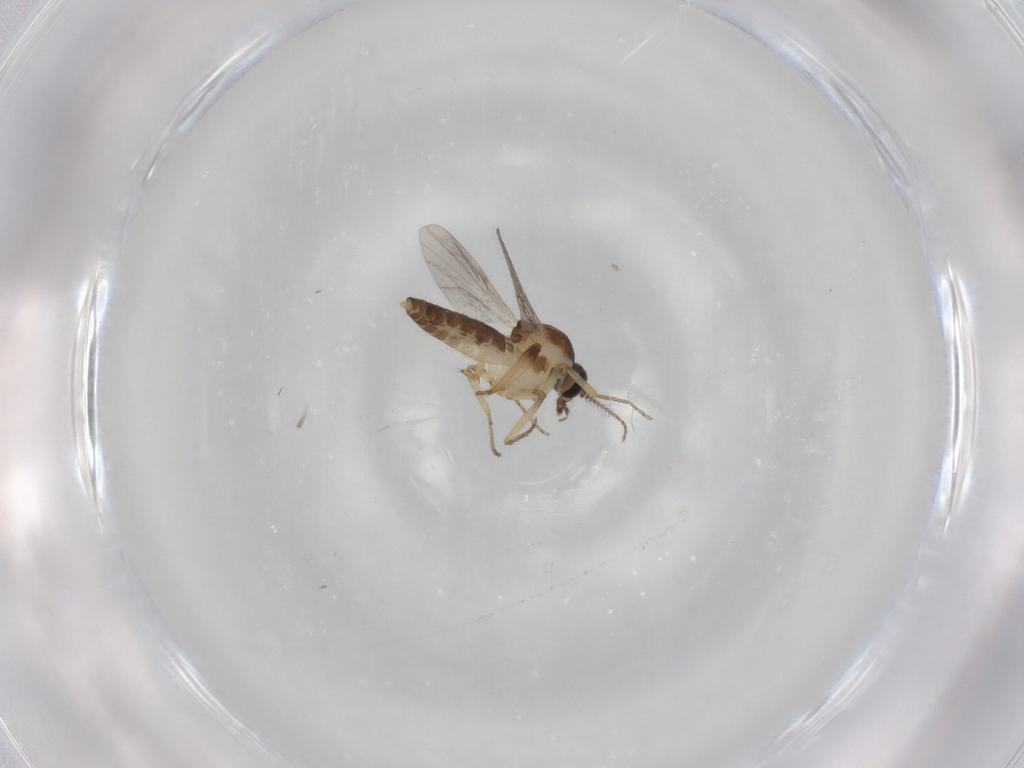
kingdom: Animalia
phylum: Arthropoda
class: Insecta
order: Diptera
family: Ceratopogonidae
